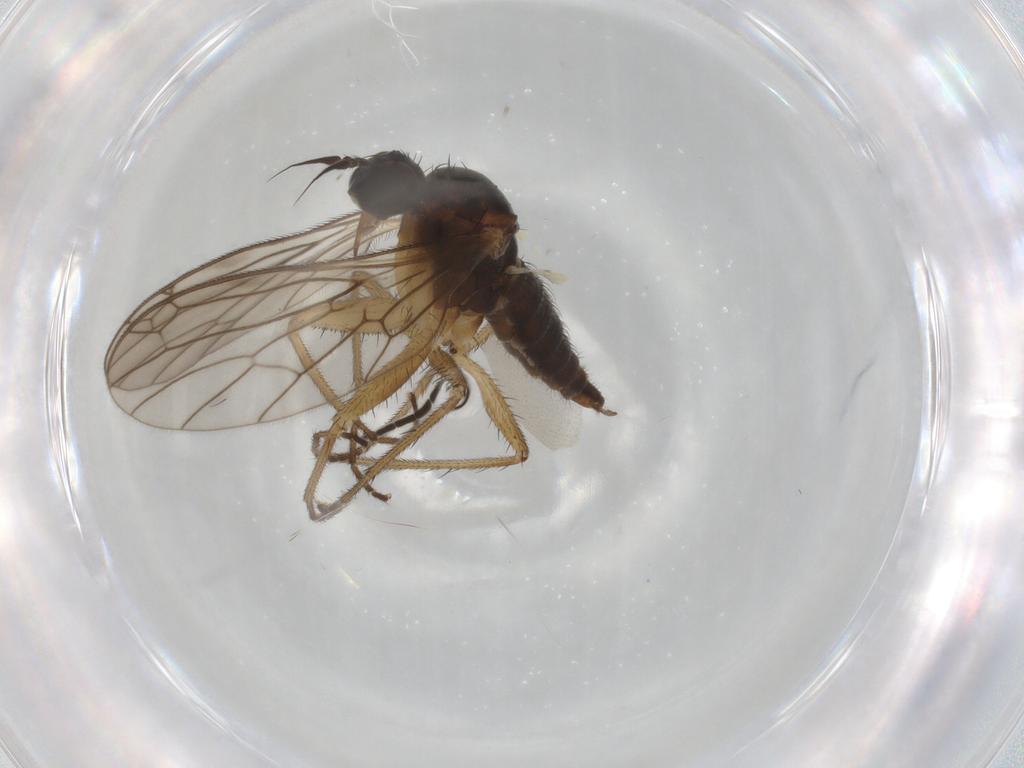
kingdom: Animalia
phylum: Arthropoda
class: Insecta
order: Diptera
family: Empididae
